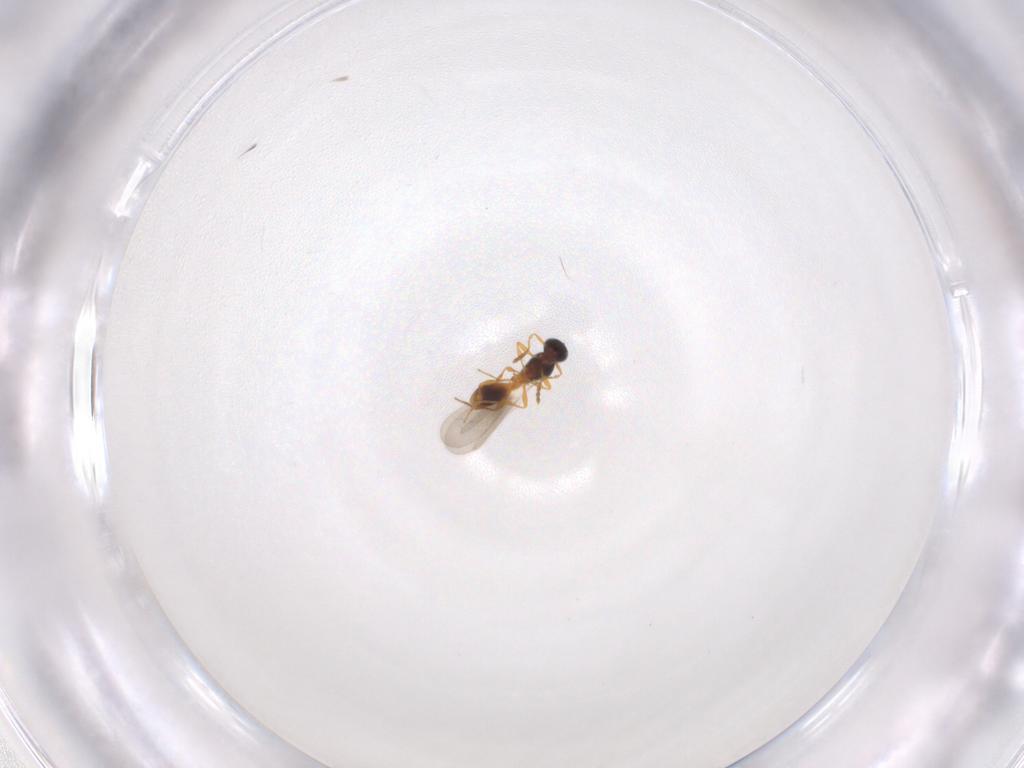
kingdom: Animalia
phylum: Arthropoda
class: Insecta
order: Hymenoptera
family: Platygastridae
